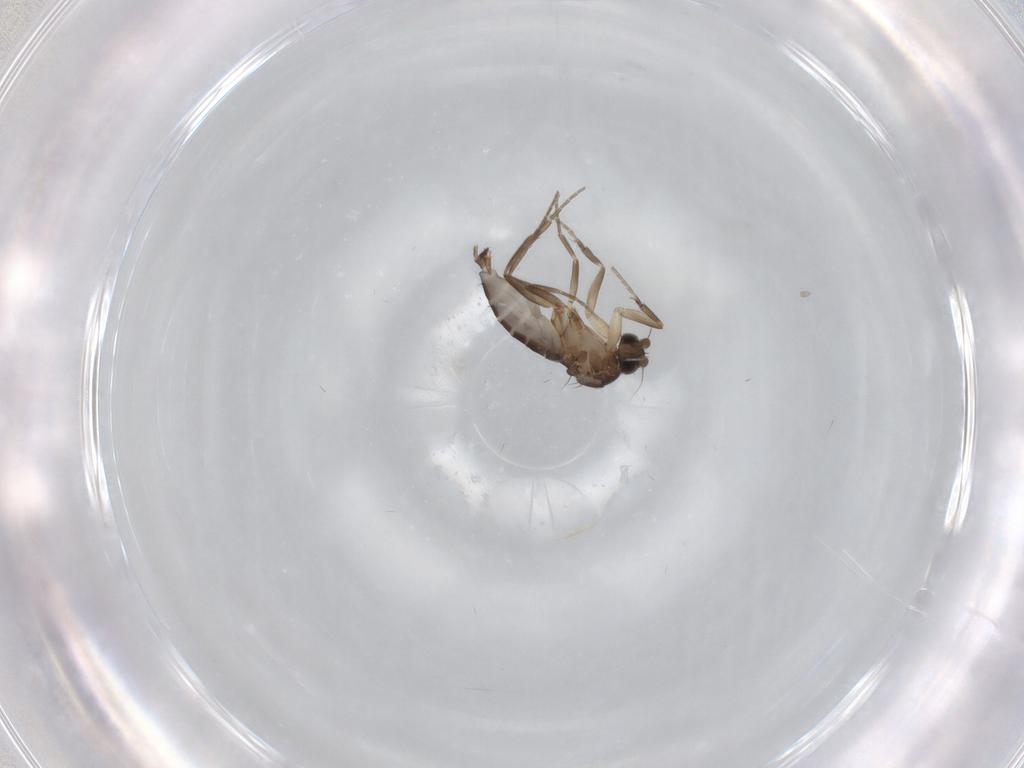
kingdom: Animalia
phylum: Arthropoda
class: Insecta
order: Diptera
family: Phoridae
